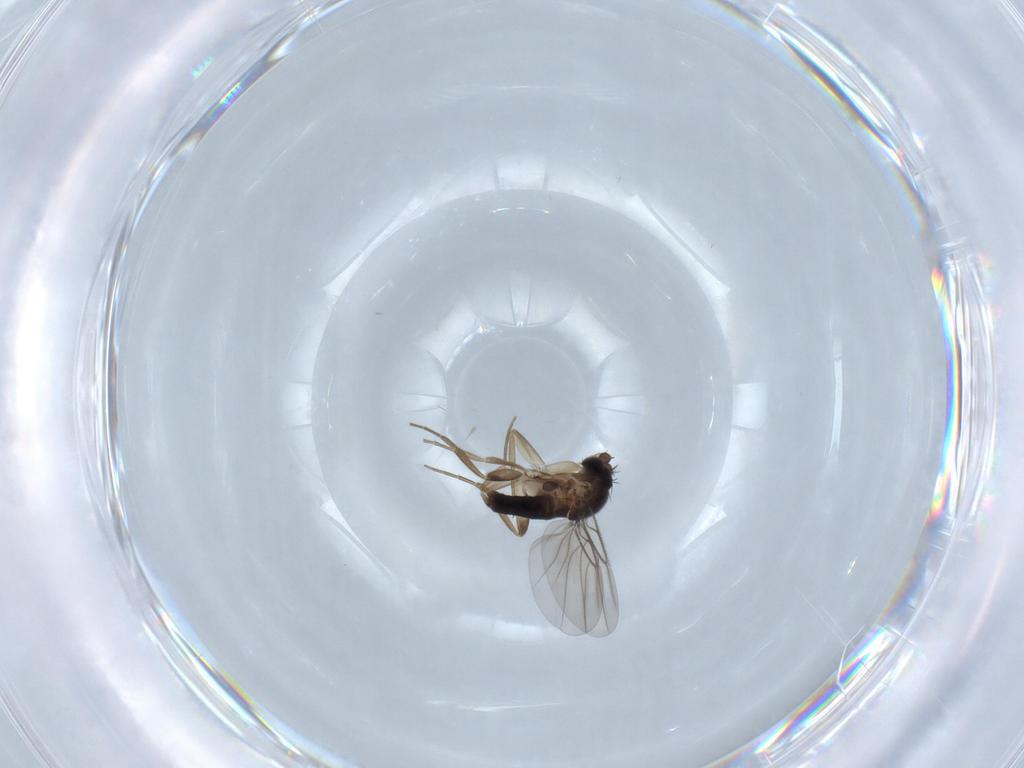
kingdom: Animalia
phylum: Arthropoda
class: Insecta
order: Diptera
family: Phoridae
